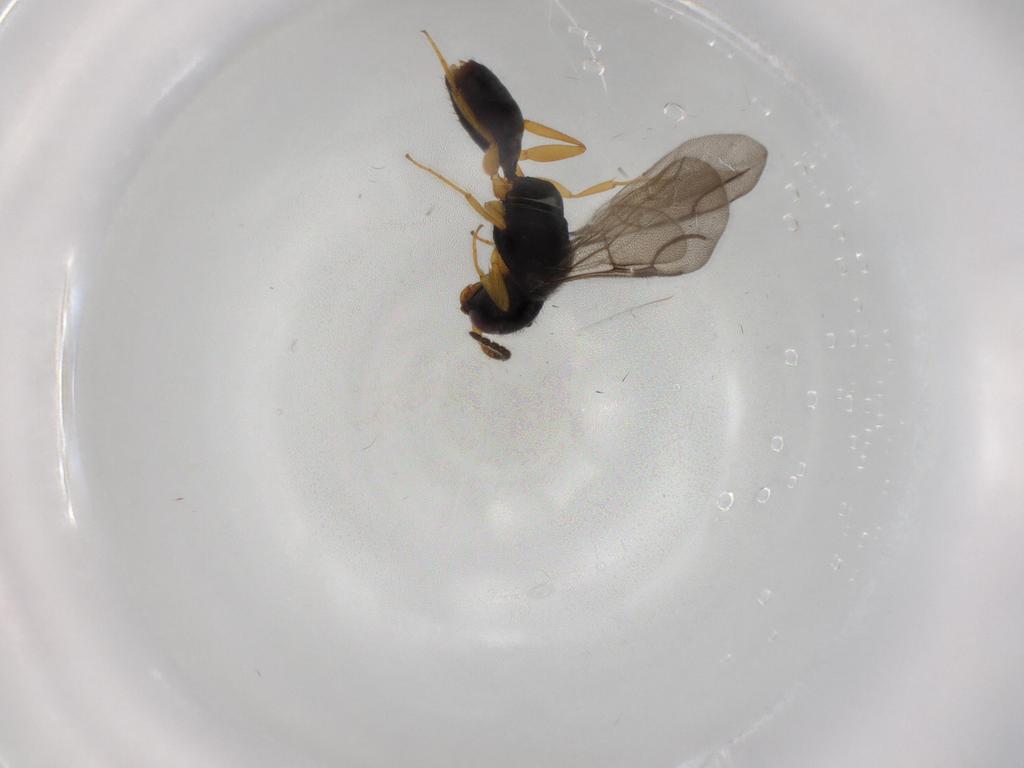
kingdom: Animalia
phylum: Arthropoda
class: Insecta
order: Hymenoptera
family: Bethylidae
